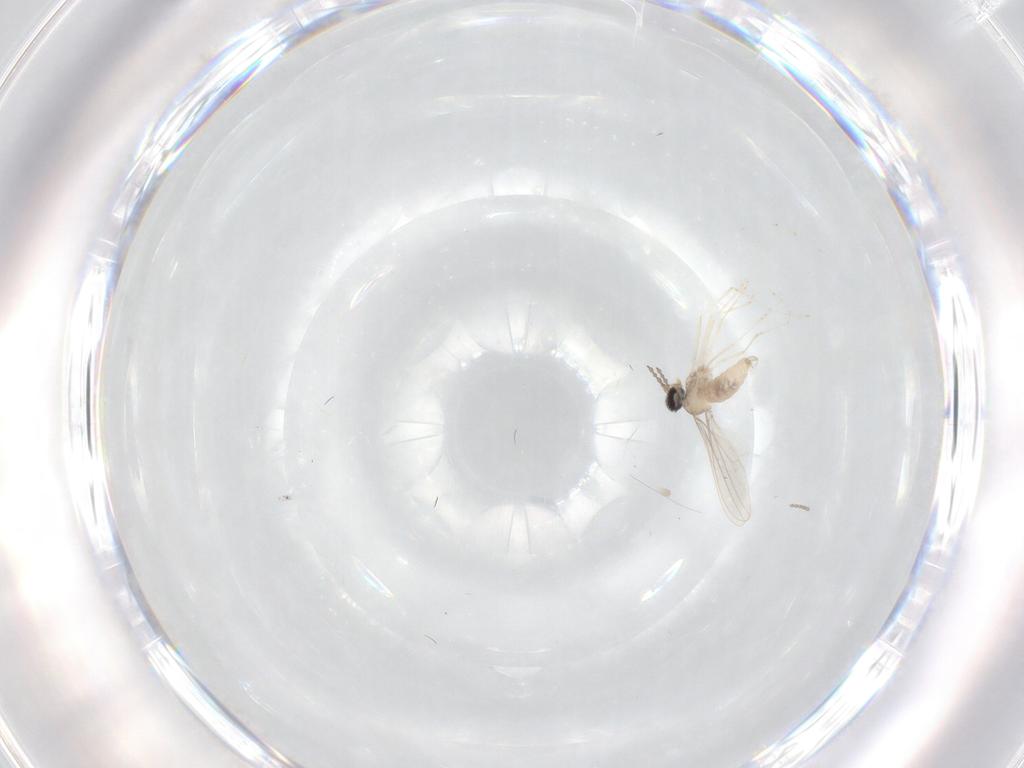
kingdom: Animalia
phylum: Arthropoda
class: Insecta
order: Diptera
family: Cecidomyiidae
